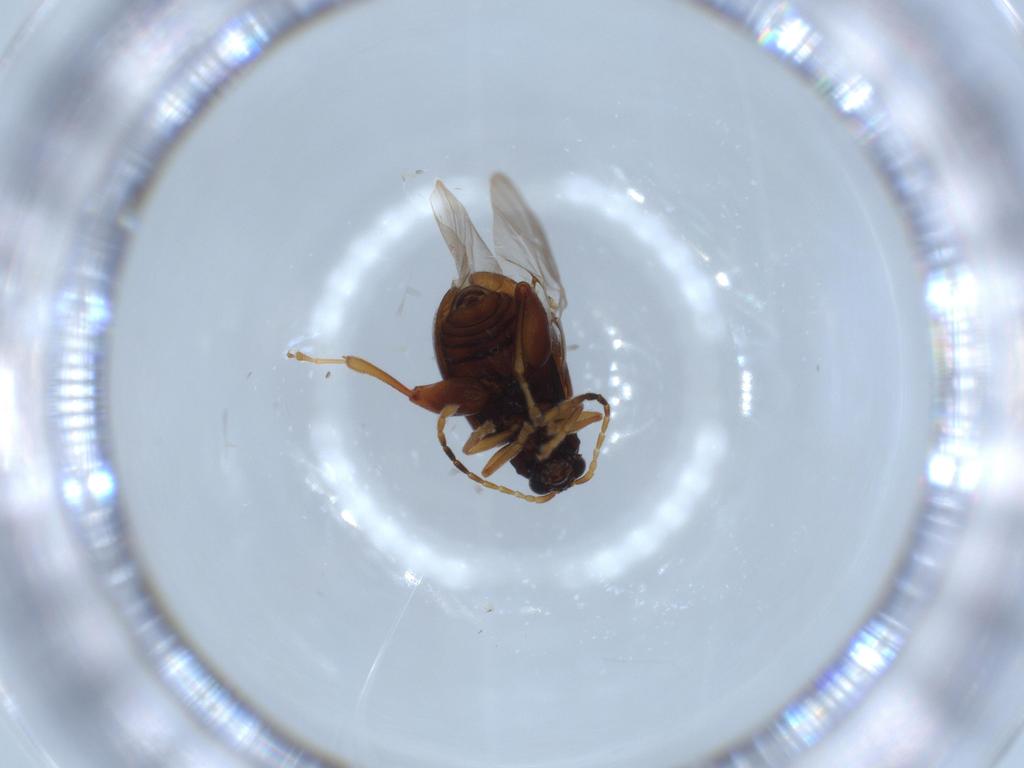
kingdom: Animalia
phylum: Arthropoda
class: Insecta
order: Coleoptera
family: Chrysomelidae
